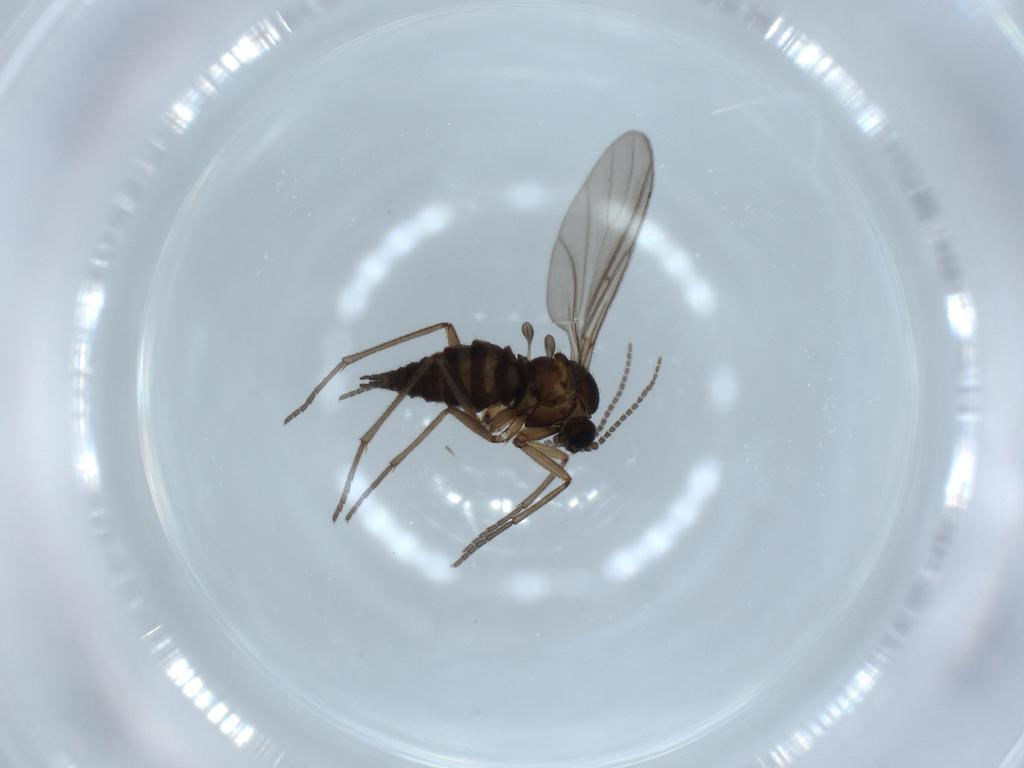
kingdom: Animalia
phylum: Arthropoda
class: Insecta
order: Diptera
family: Sciaridae
